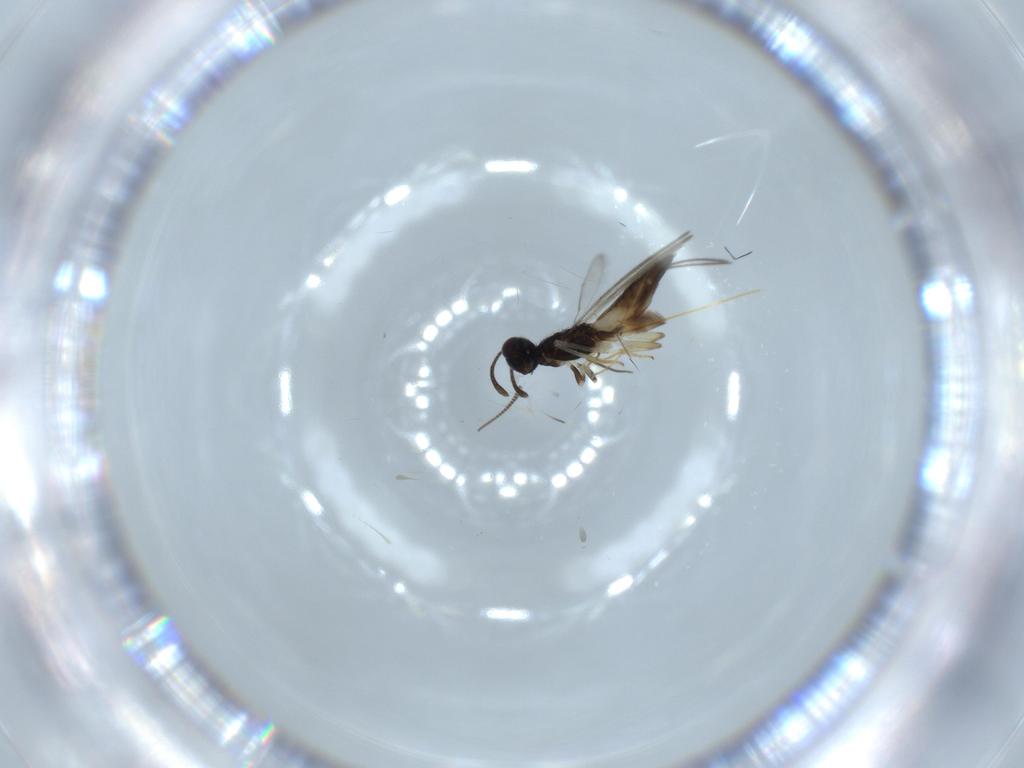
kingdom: Animalia
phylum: Arthropoda
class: Insecta
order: Hymenoptera
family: Eupelmidae
